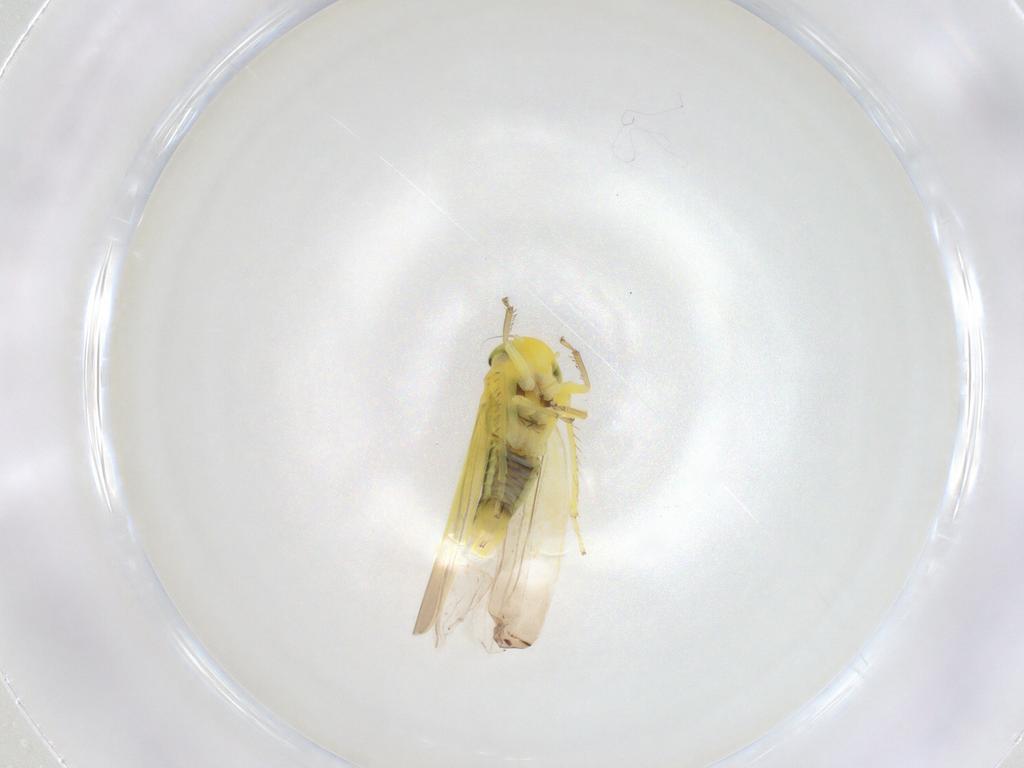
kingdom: Animalia
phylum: Arthropoda
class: Insecta
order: Hemiptera
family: Cicadellidae
